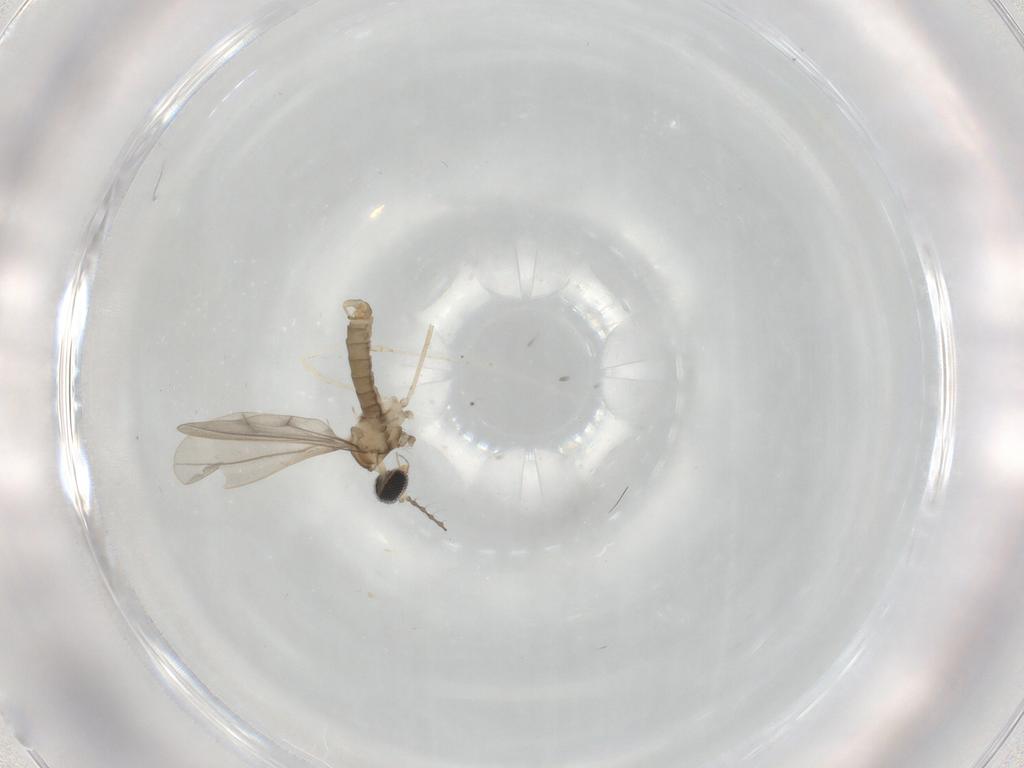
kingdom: Animalia
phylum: Arthropoda
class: Insecta
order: Diptera
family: Cecidomyiidae
